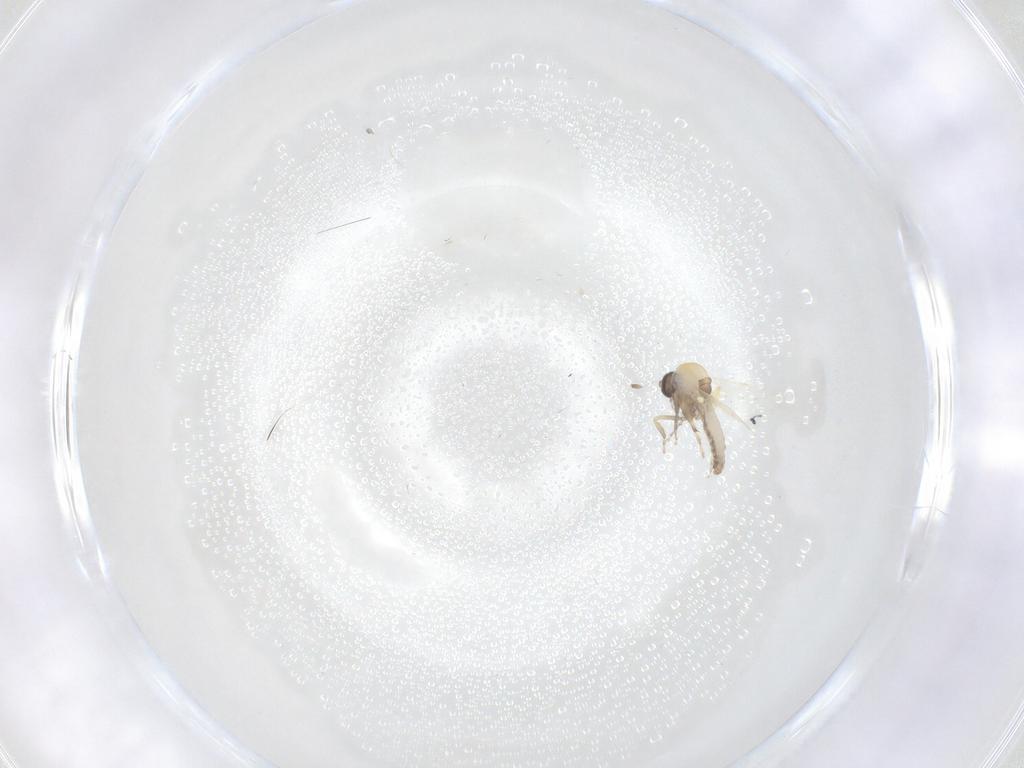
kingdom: Animalia
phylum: Arthropoda
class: Insecta
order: Diptera
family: Ceratopogonidae
